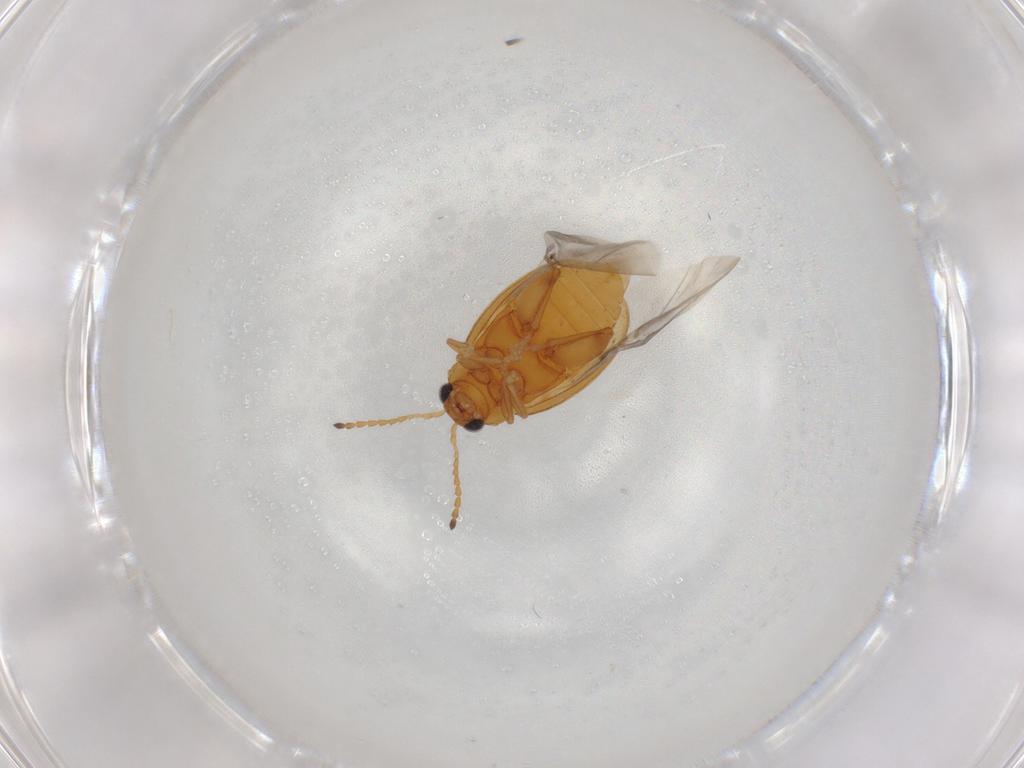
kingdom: Animalia
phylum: Arthropoda
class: Insecta
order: Coleoptera
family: Chrysomelidae
